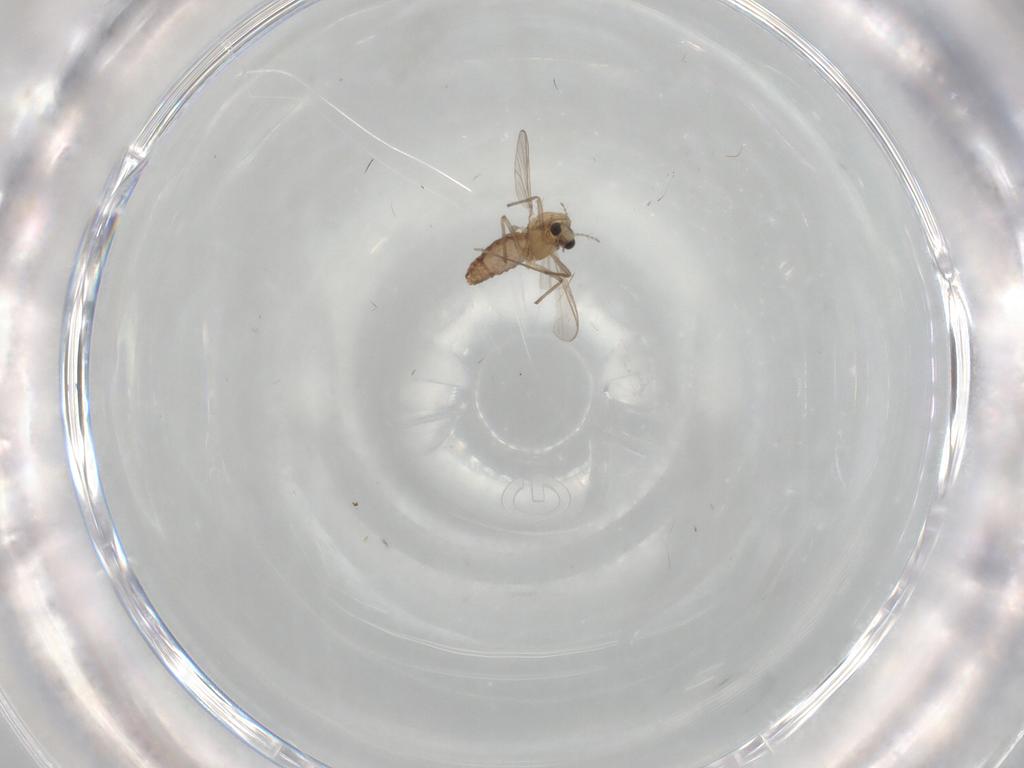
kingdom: Animalia
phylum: Arthropoda
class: Insecta
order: Diptera
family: Chironomidae
